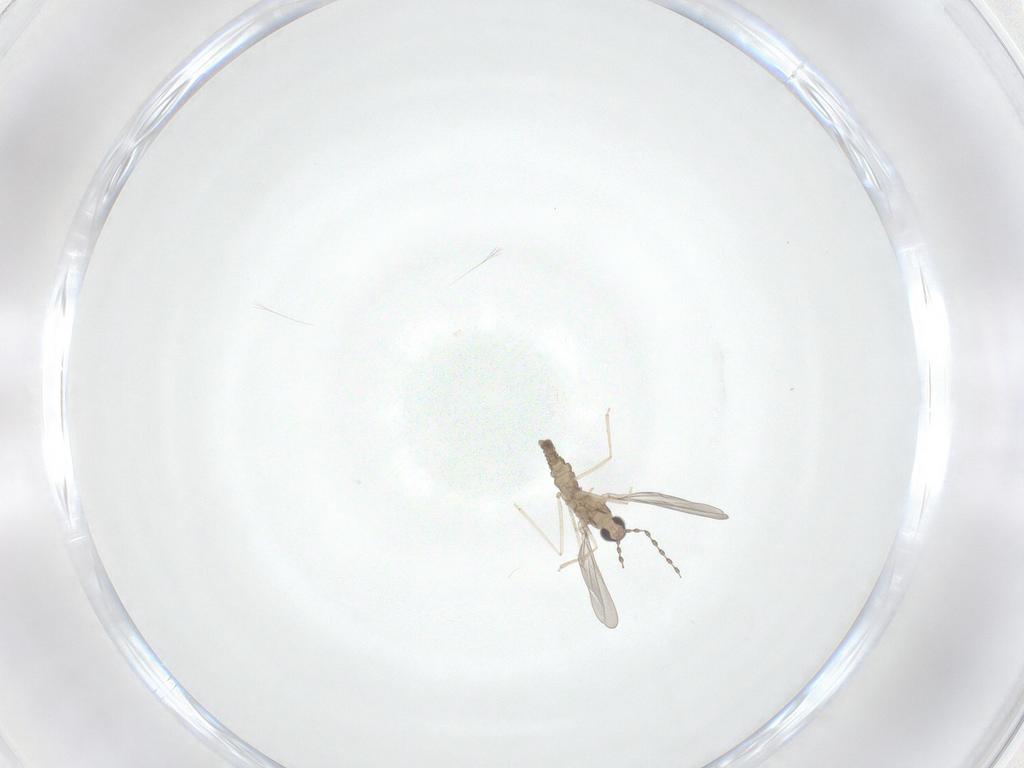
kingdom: Animalia
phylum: Arthropoda
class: Insecta
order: Diptera
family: Cecidomyiidae
